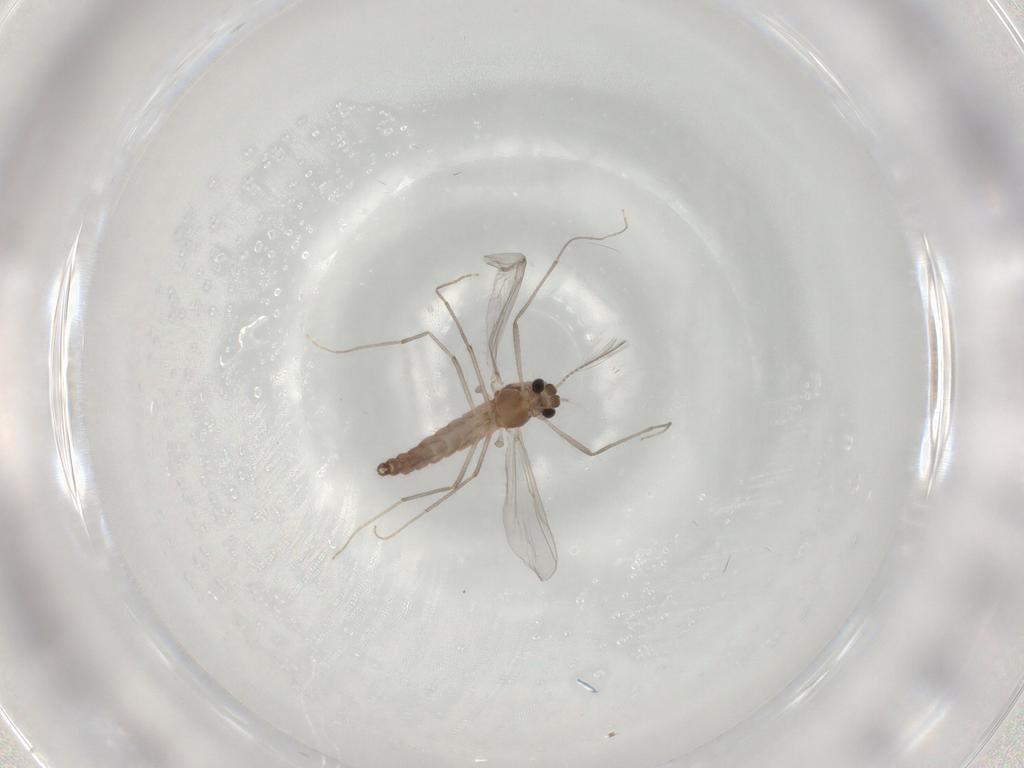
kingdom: Animalia
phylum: Arthropoda
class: Insecta
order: Diptera
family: Chironomidae
